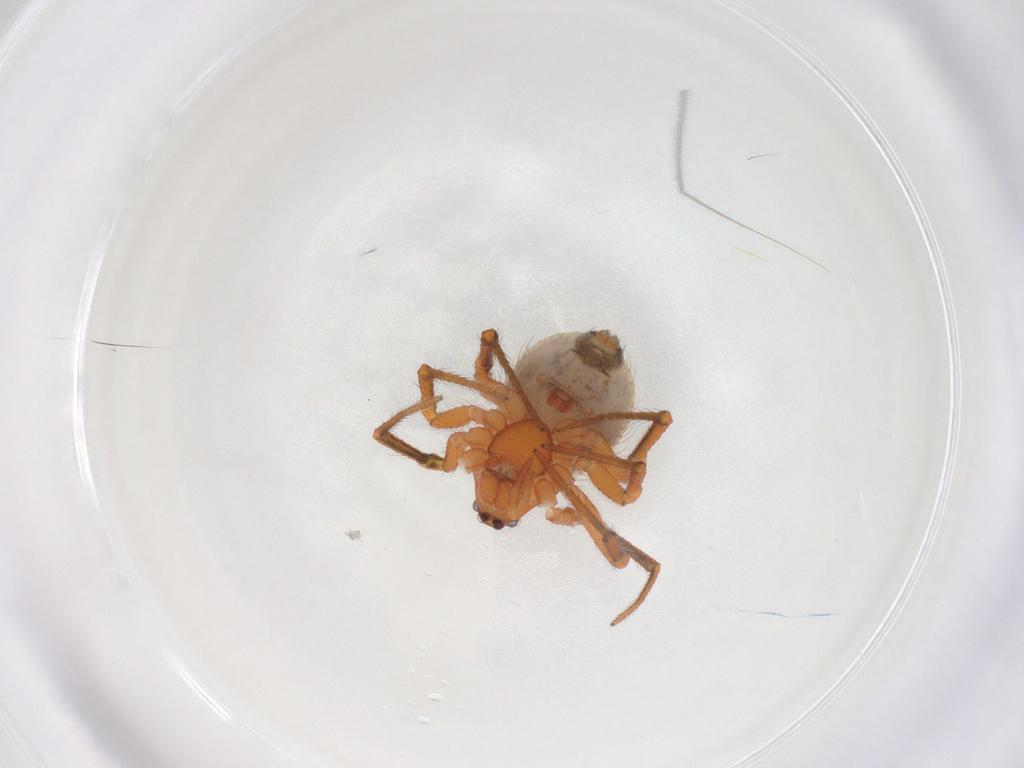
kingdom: Animalia
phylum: Arthropoda
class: Arachnida
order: Araneae
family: Theridiidae
